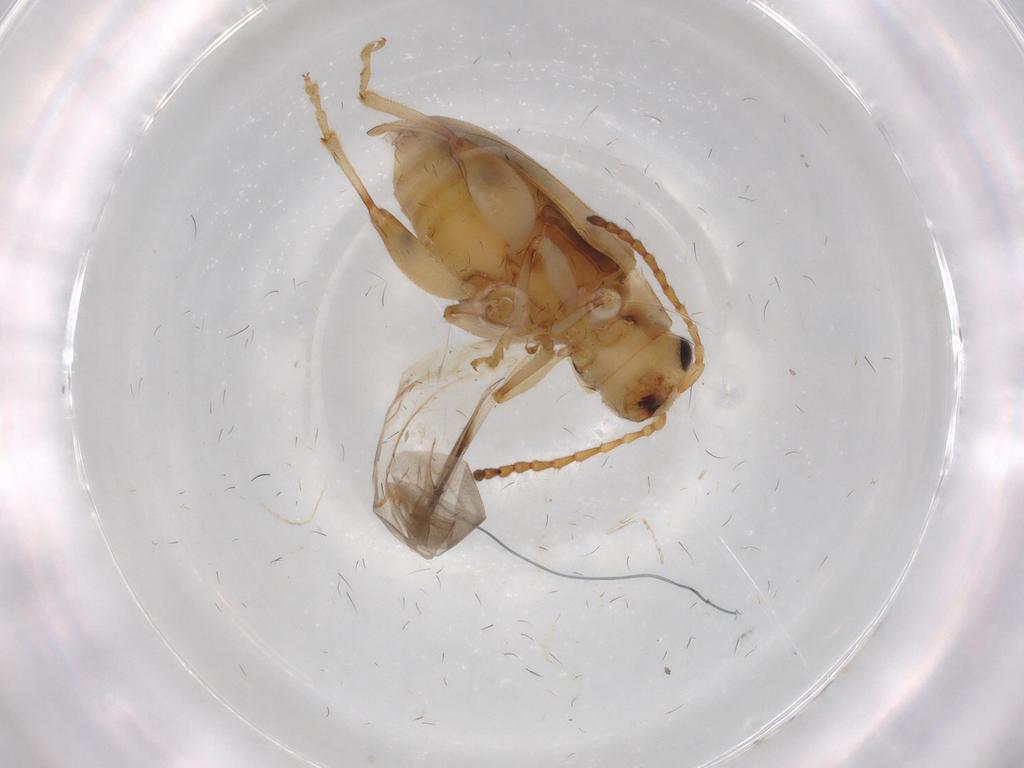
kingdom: Animalia
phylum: Arthropoda
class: Insecta
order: Coleoptera
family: Chrysomelidae
